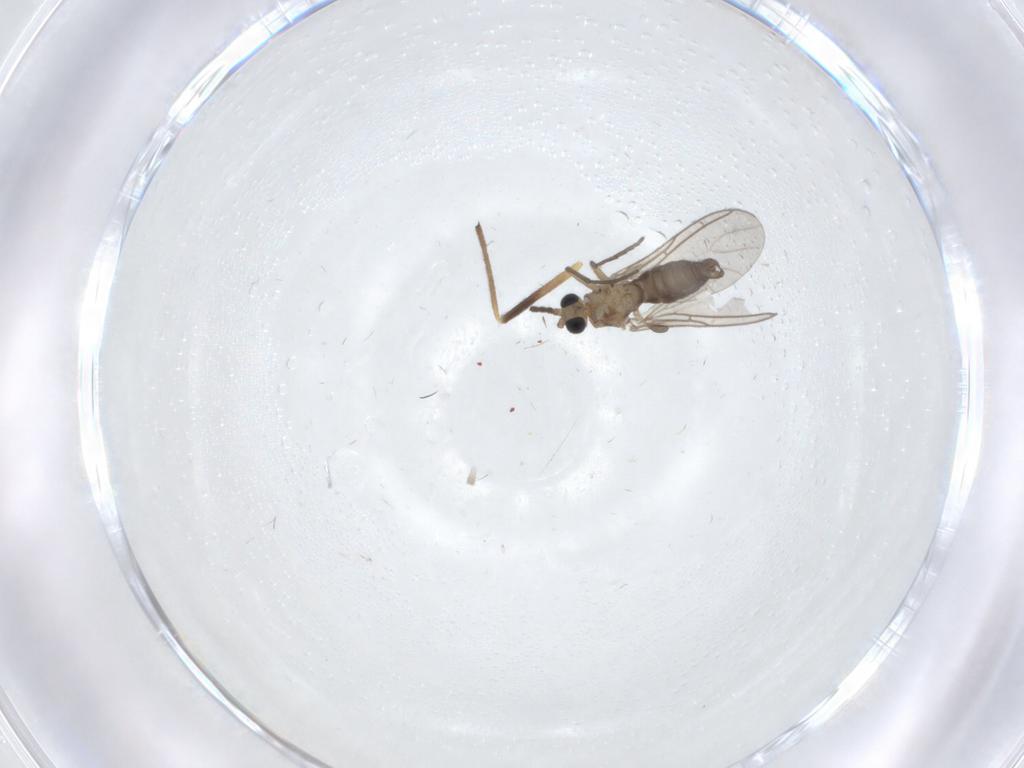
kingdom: Animalia
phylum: Arthropoda
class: Insecta
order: Diptera
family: Sciaridae
